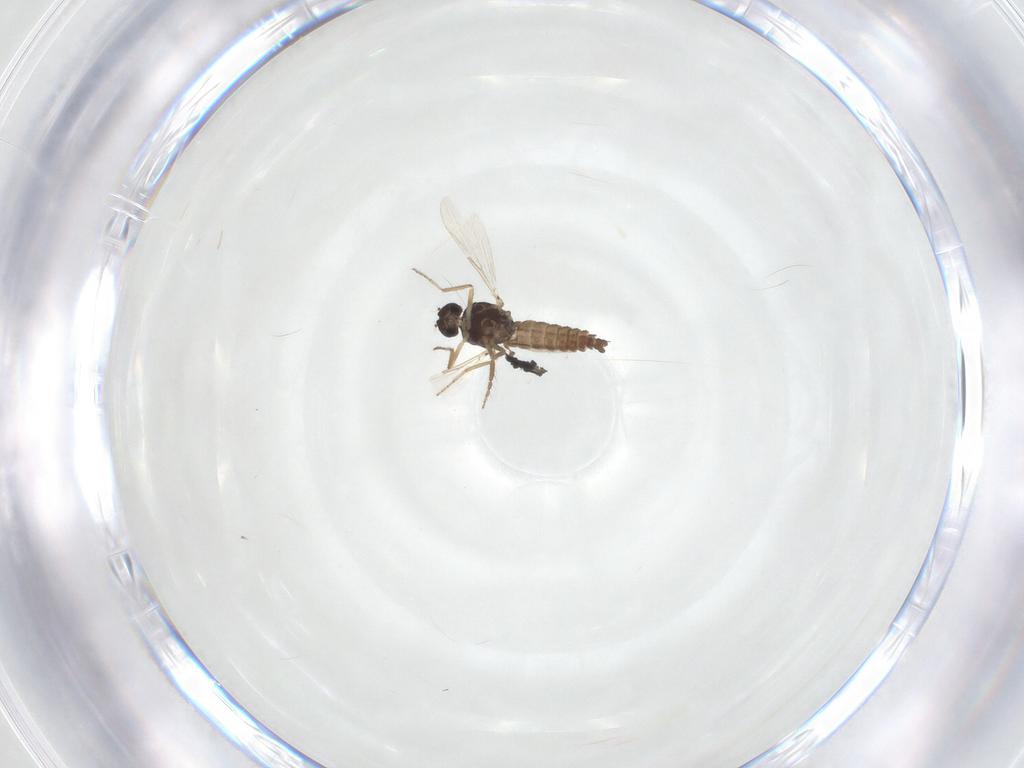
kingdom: Animalia
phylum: Arthropoda
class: Insecta
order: Diptera
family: Ceratopogonidae
